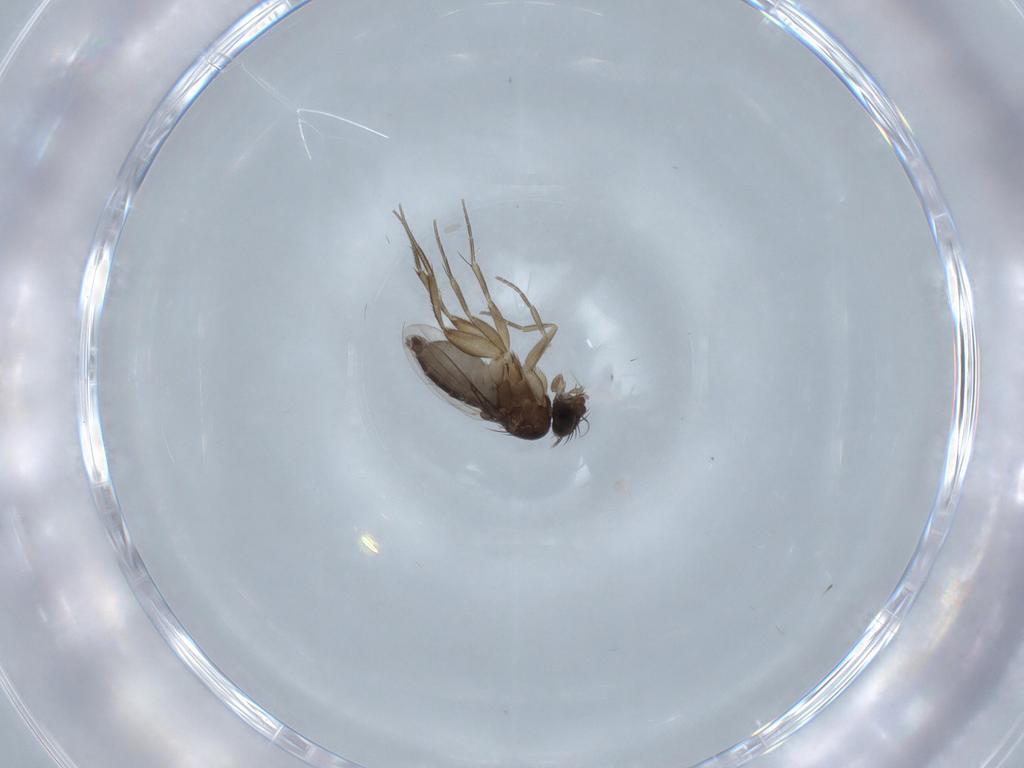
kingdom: Animalia
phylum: Arthropoda
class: Insecta
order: Diptera
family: Phoridae
